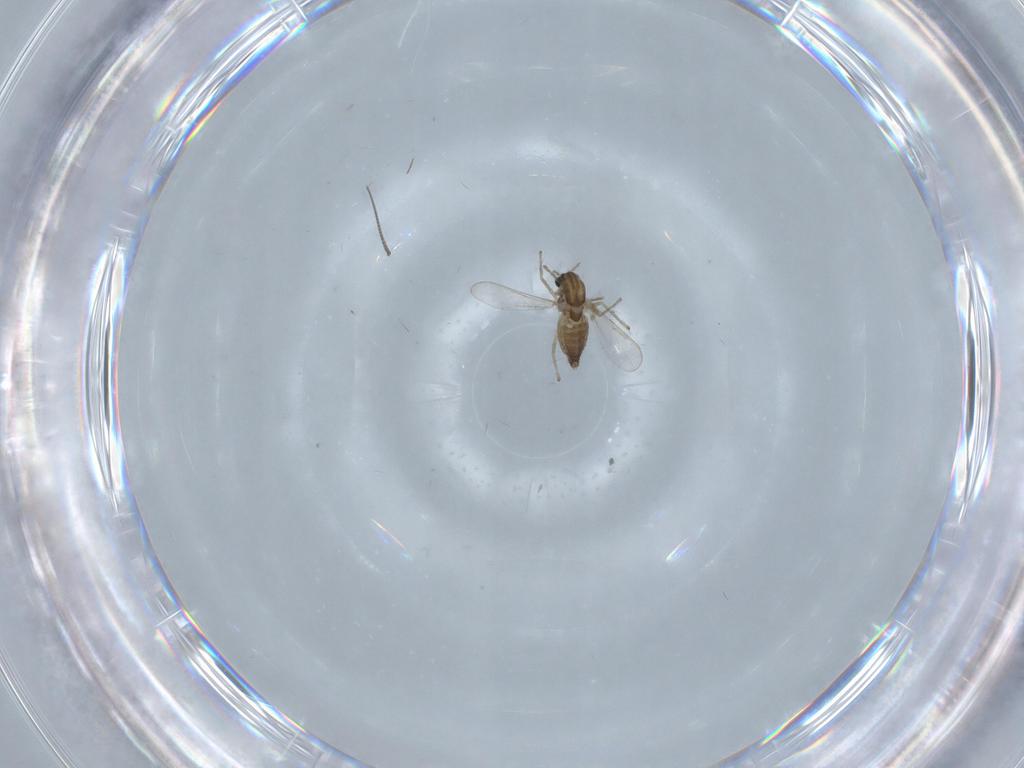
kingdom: Animalia
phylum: Arthropoda
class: Insecta
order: Diptera
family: Chironomidae
